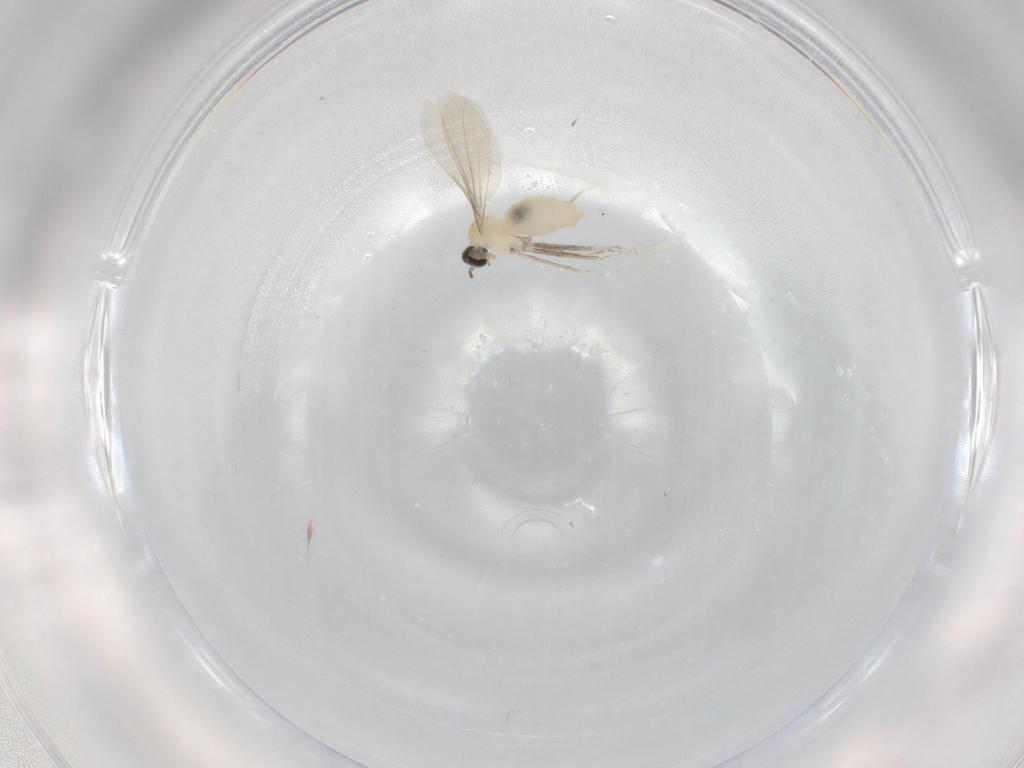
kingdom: Animalia
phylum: Arthropoda
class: Insecta
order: Diptera
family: Cecidomyiidae
